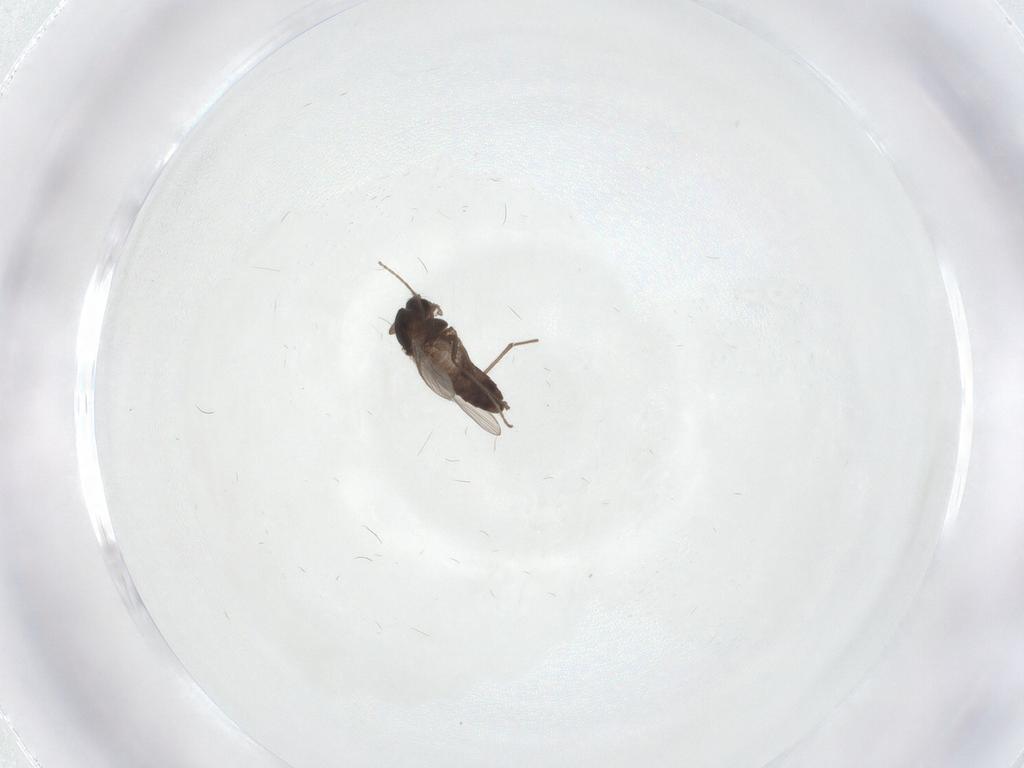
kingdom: Animalia
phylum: Arthropoda
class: Insecta
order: Diptera
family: Chironomidae
